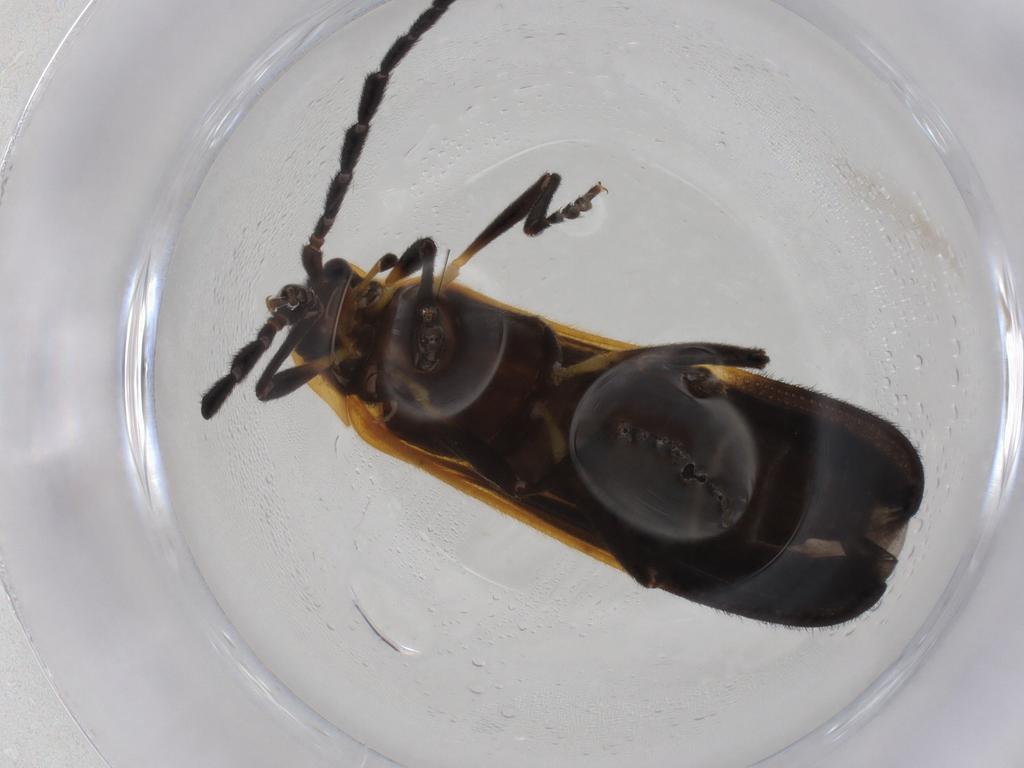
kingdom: Animalia
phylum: Arthropoda
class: Insecta
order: Coleoptera
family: Lycidae
